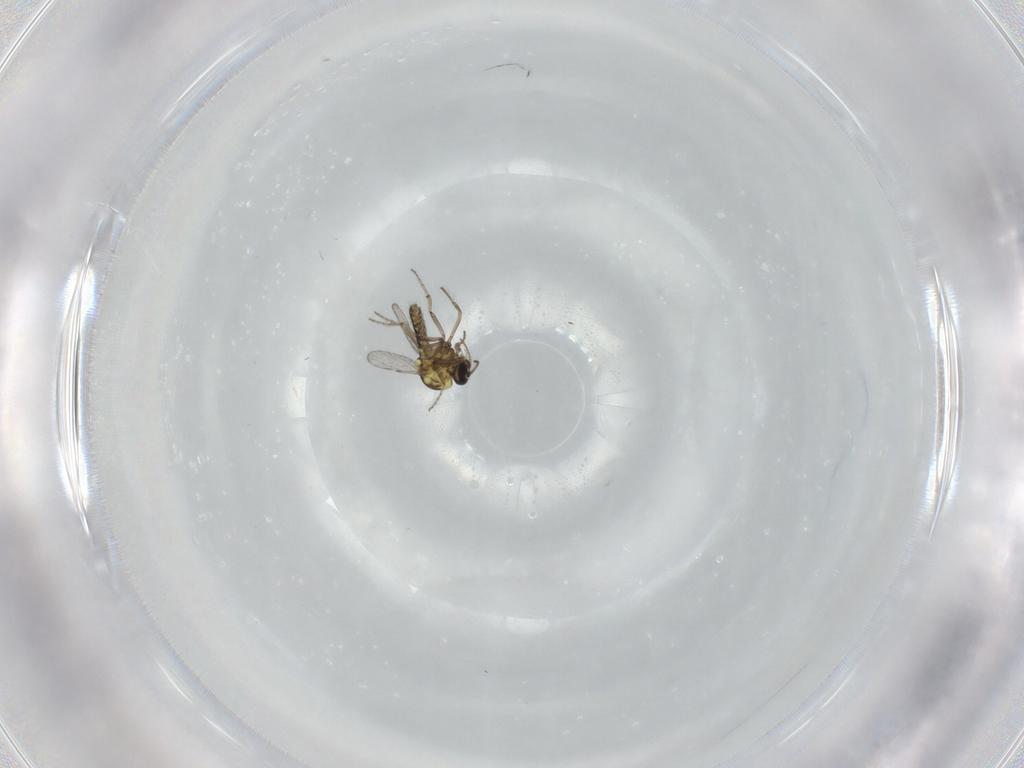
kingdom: Animalia
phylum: Arthropoda
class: Insecta
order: Diptera
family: Ceratopogonidae
